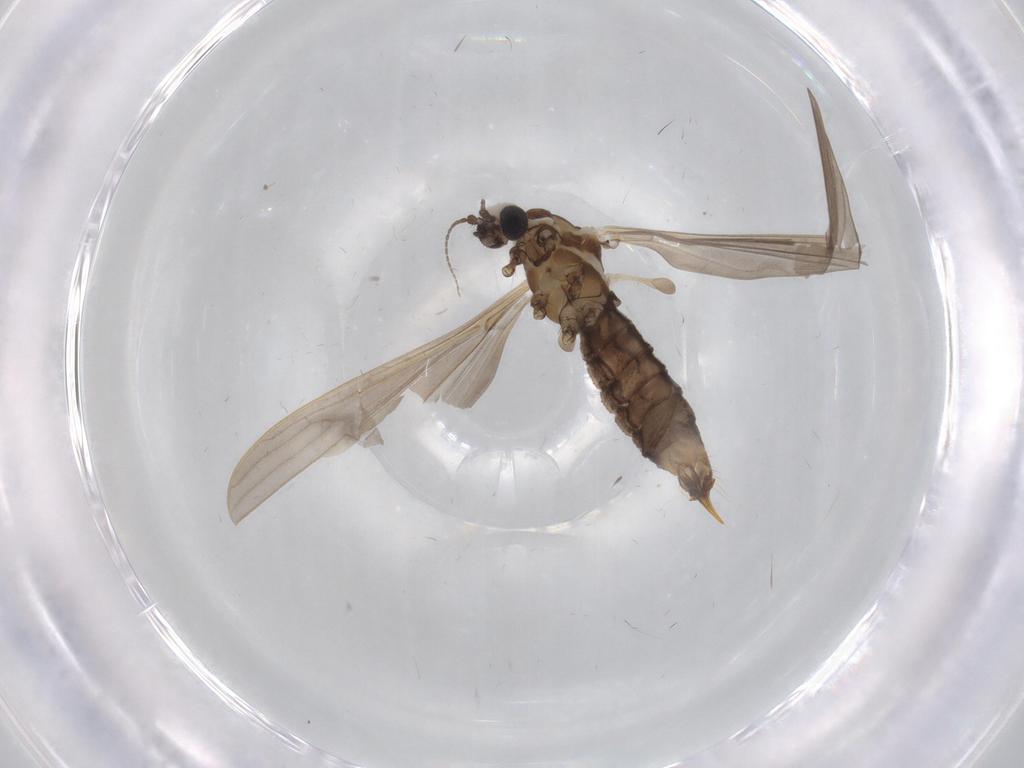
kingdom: Animalia
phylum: Arthropoda
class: Insecta
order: Diptera
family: Limoniidae
